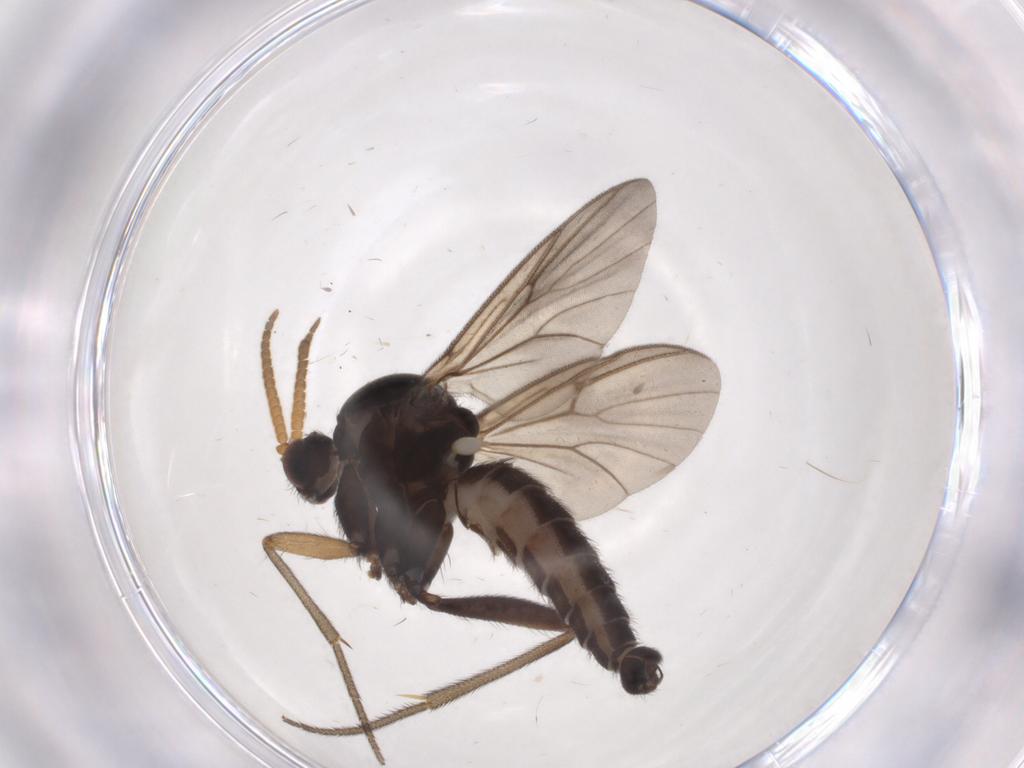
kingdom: Animalia
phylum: Arthropoda
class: Insecta
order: Diptera
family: Mycetophilidae
